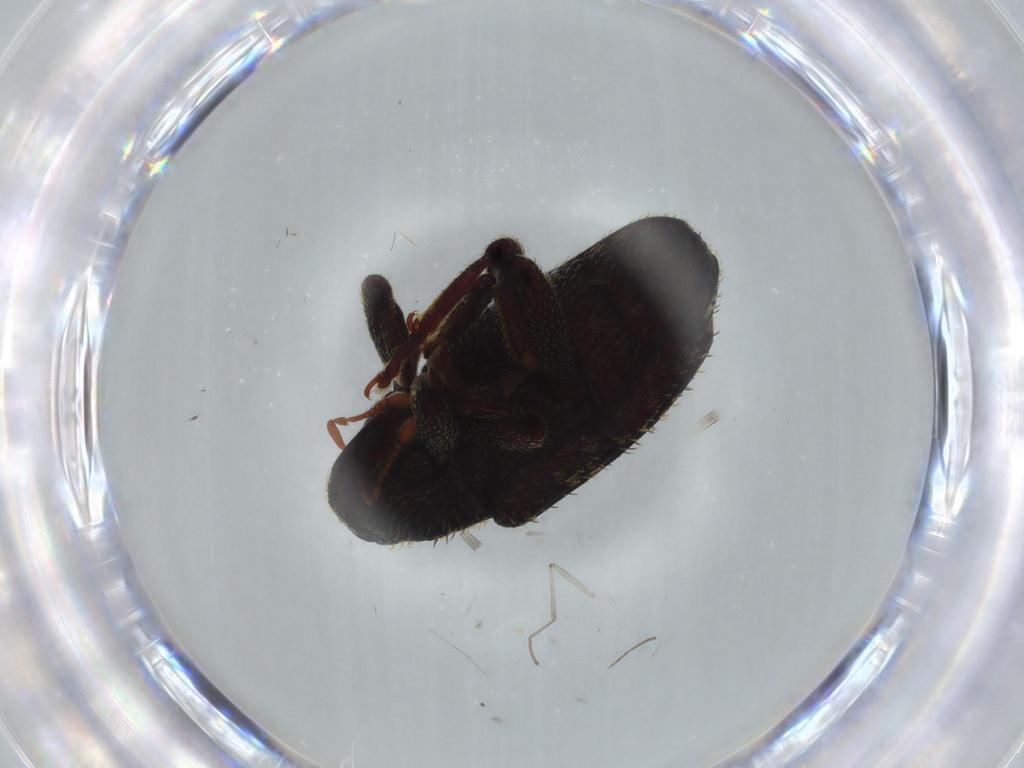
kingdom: Animalia
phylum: Arthropoda
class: Insecta
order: Coleoptera
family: Curculionidae
